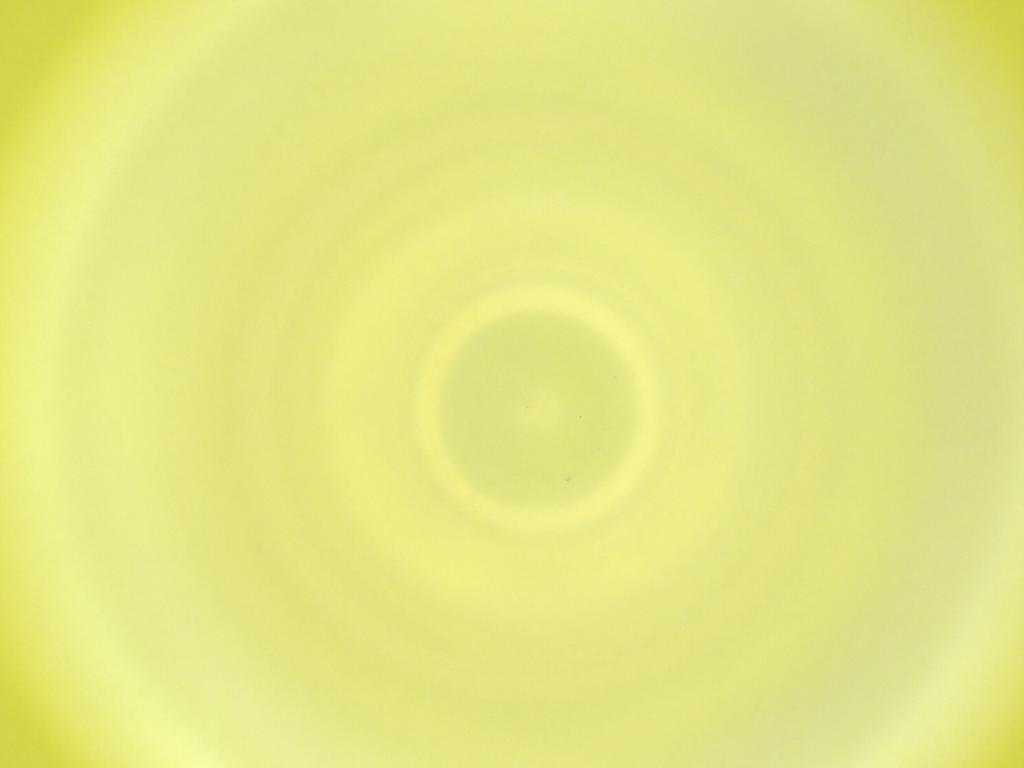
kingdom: Animalia
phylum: Arthropoda
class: Insecta
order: Diptera
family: Cecidomyiidae
